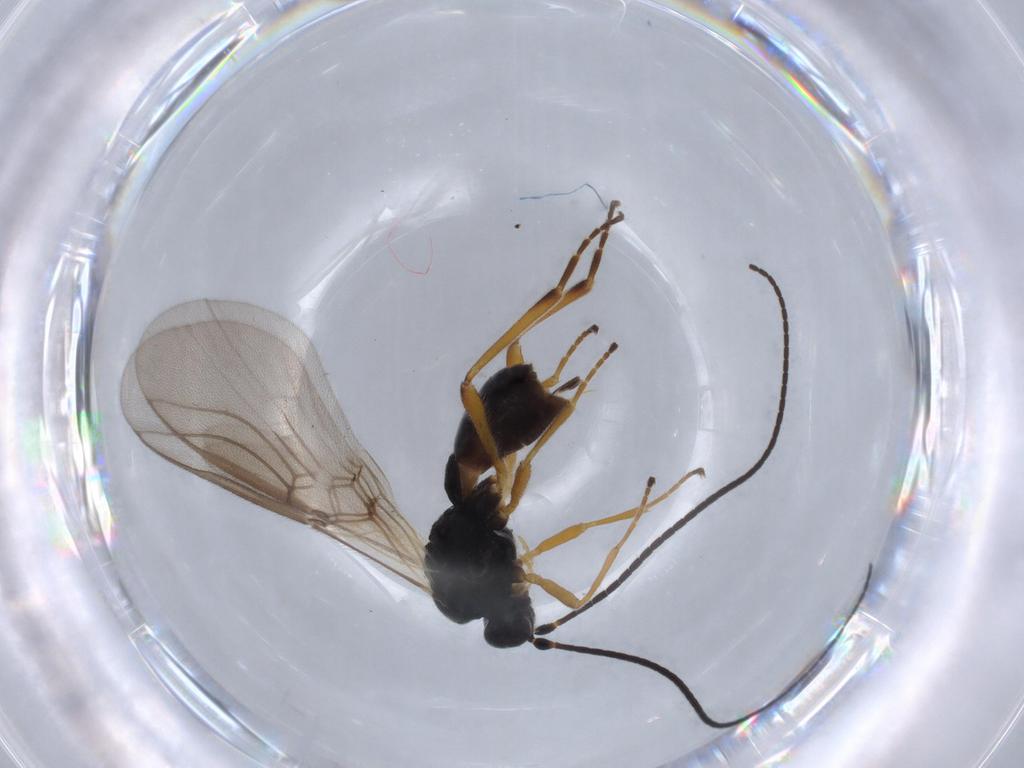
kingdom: Animalia
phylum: Arthropoda
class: Insecta
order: Hymenoptera
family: Braconidae
